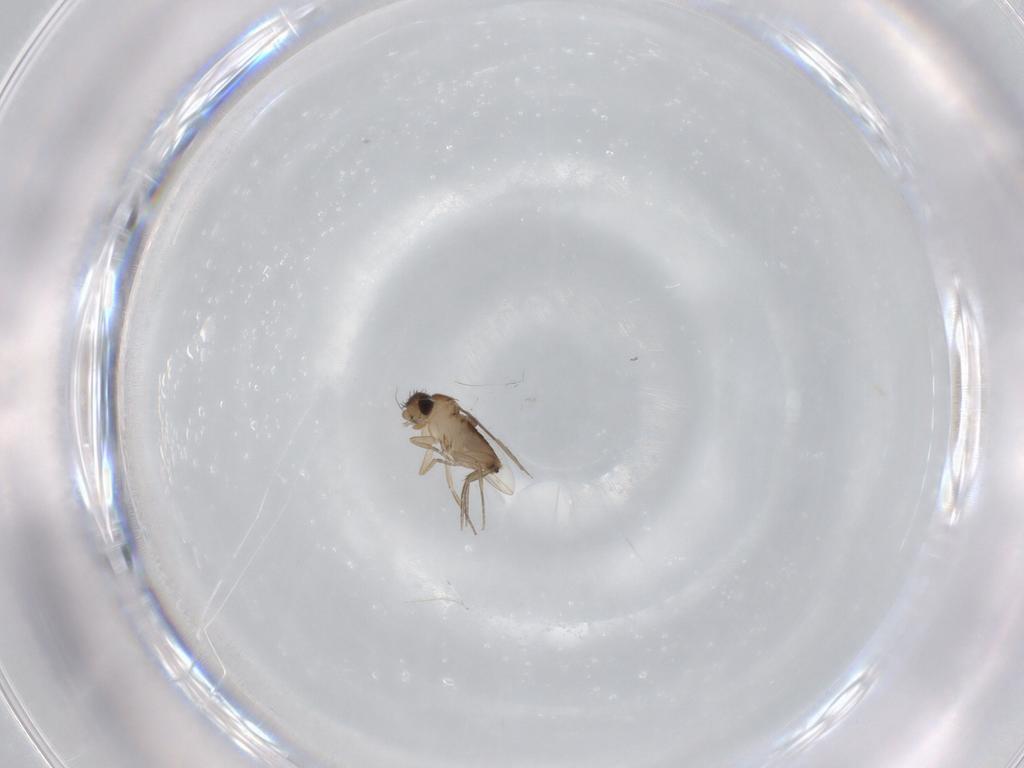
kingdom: Animalia
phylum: Arthropoda
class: Insecta
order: Diptera
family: Cecidomyiidae
